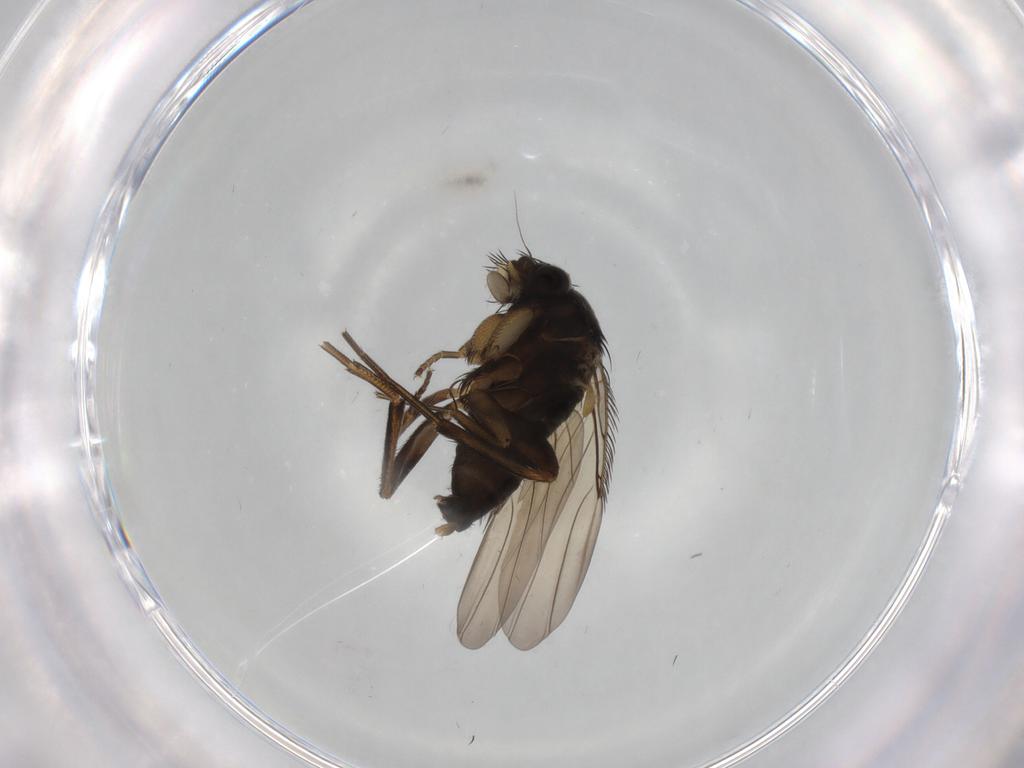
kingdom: Animalia
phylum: Arthropoda
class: Insecta
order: Diptera
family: Phoridae
